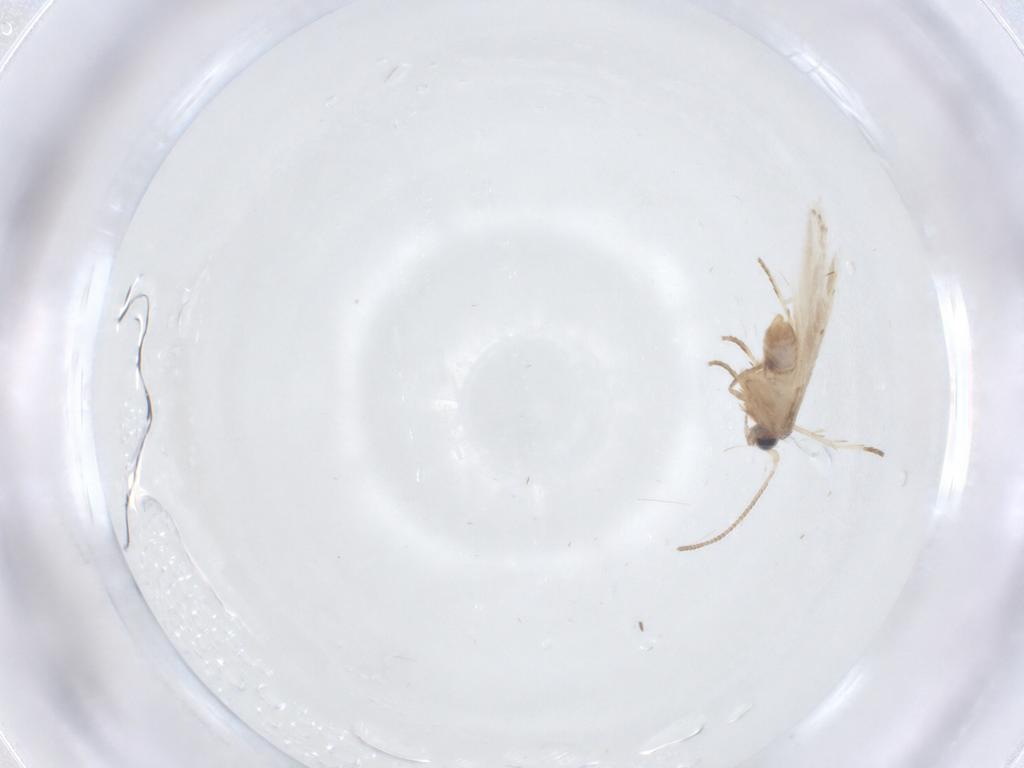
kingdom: Animalia
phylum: Arthropoda
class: Insecta
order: Lepidoptera
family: Nepticulidae
